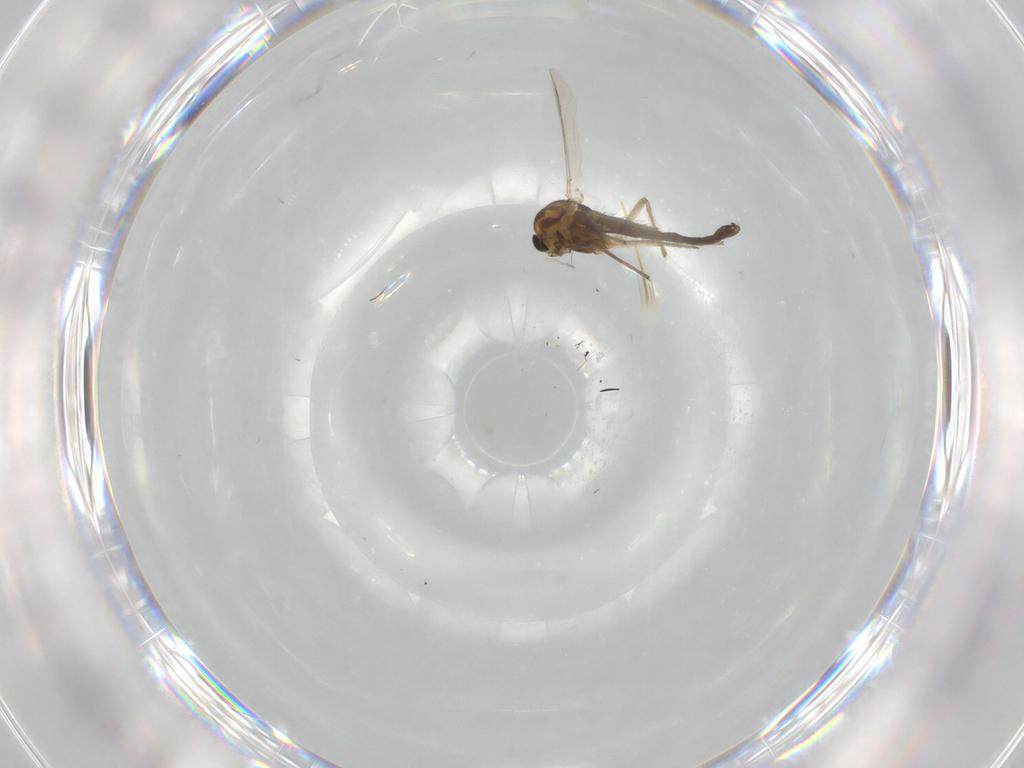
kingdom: Animalia
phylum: Arthropoda
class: Insecta
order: Diptera
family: Chironomidae
